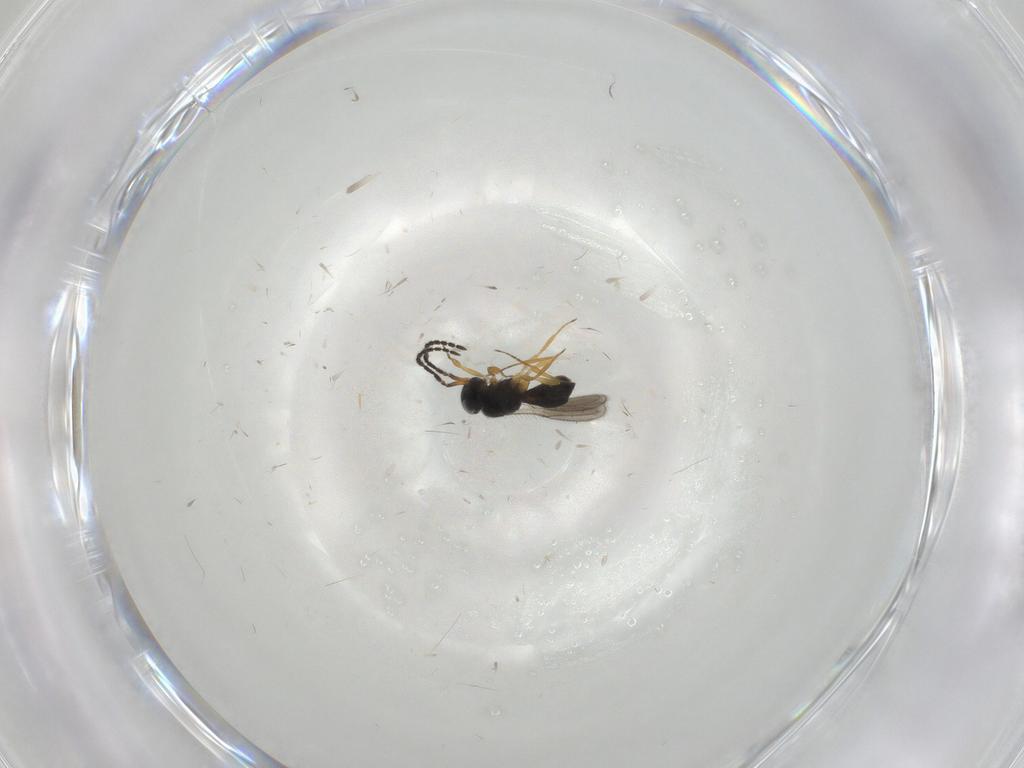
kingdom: Animalia
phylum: Arthropoda
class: Insecta
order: Hymenoptera
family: Scelionidae
